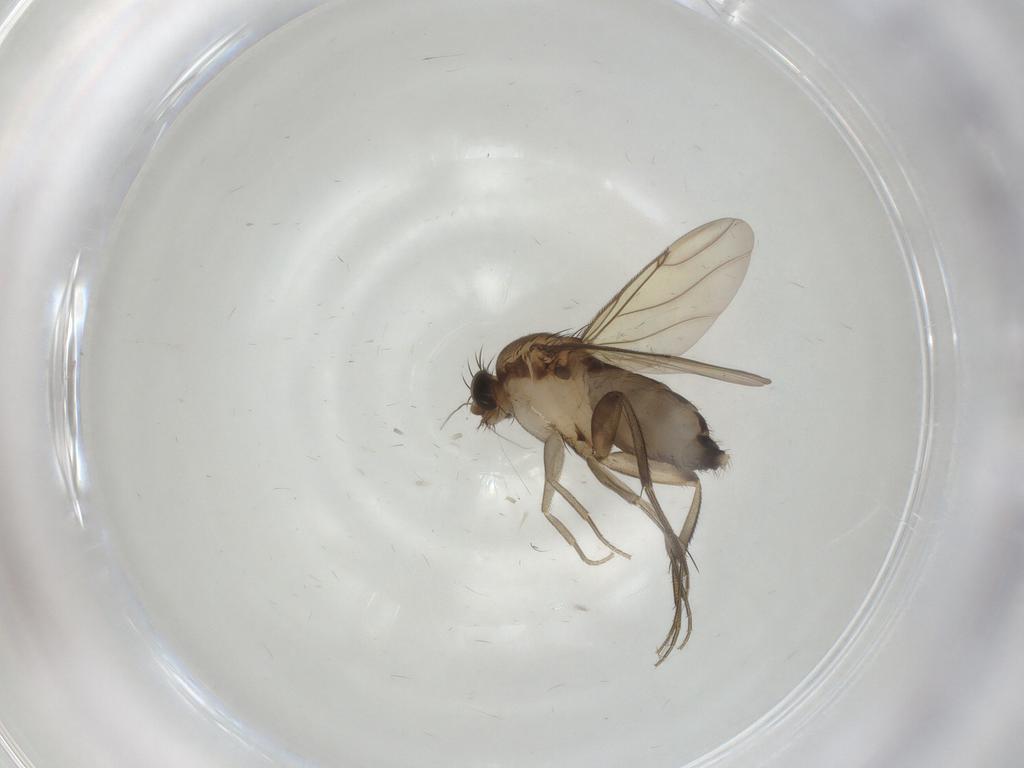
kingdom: Animalia
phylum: Arthropoda
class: Insecta
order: Diptera
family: Phoridae
